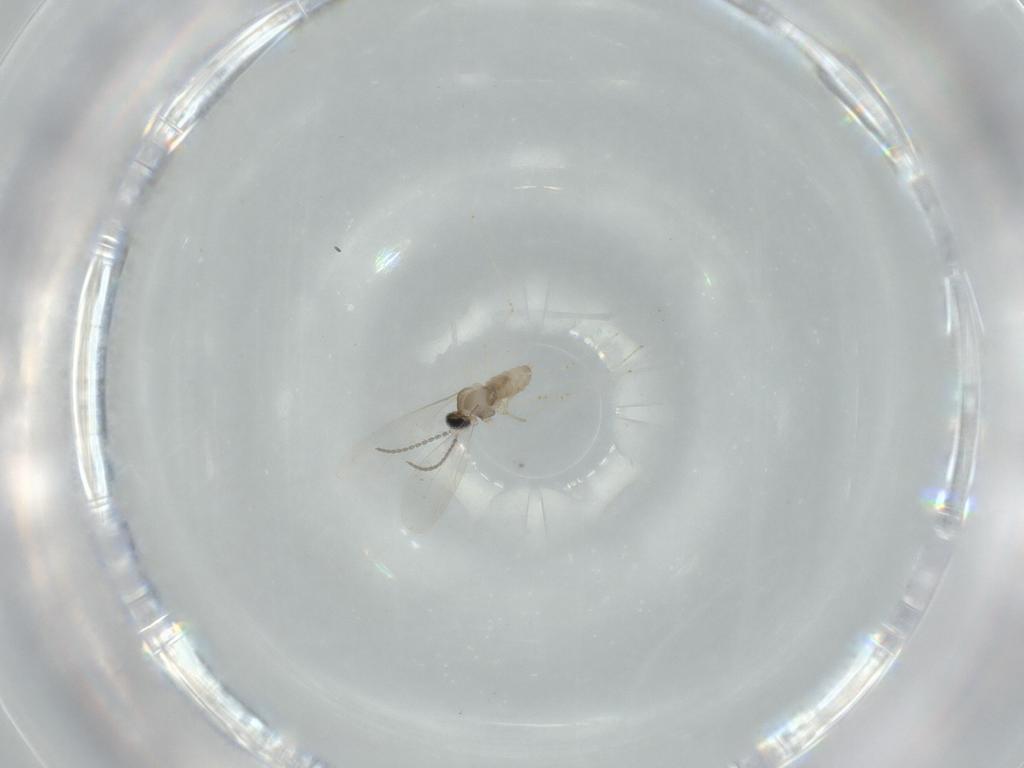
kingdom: Animalia
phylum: Arthropoda
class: Insecta
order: Diptera
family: Cecidomyiidae
